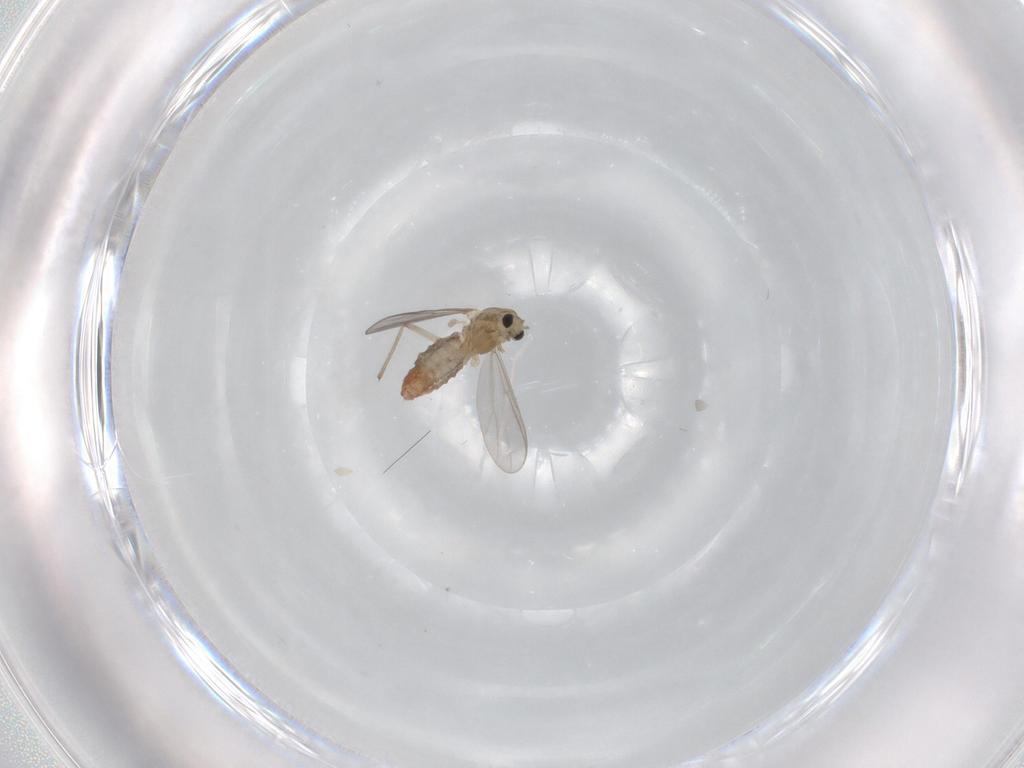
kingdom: Animalia
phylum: Arthropoda
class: Insecta
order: Diptera
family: Chironomidae
